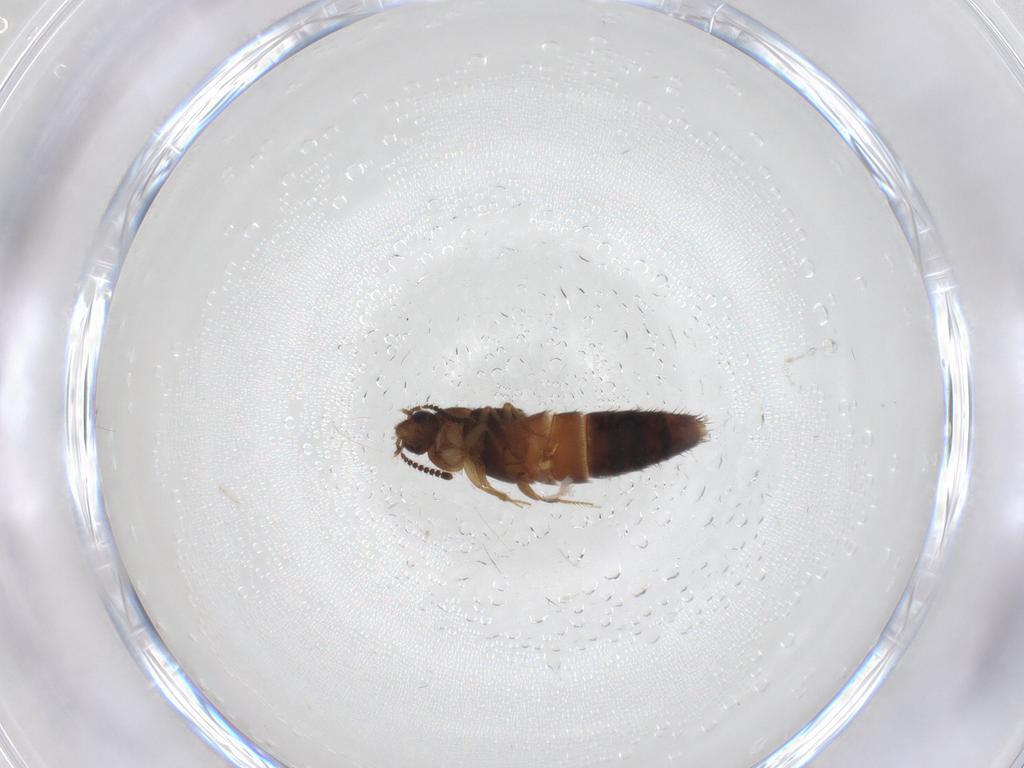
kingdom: Animalia
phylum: Arthropoda
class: Insecta
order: Coleoptera
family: Staphylinidae
